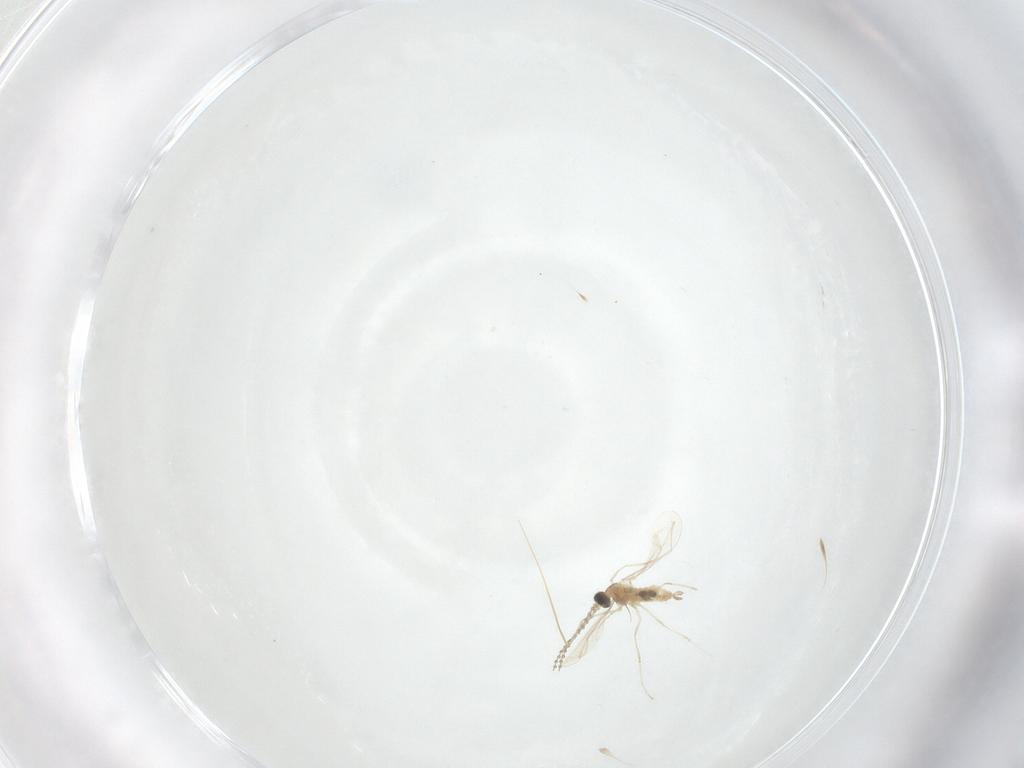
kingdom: Animalia
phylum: Arthropoda
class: Insecta
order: Diptera
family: Cecidomyiidae
